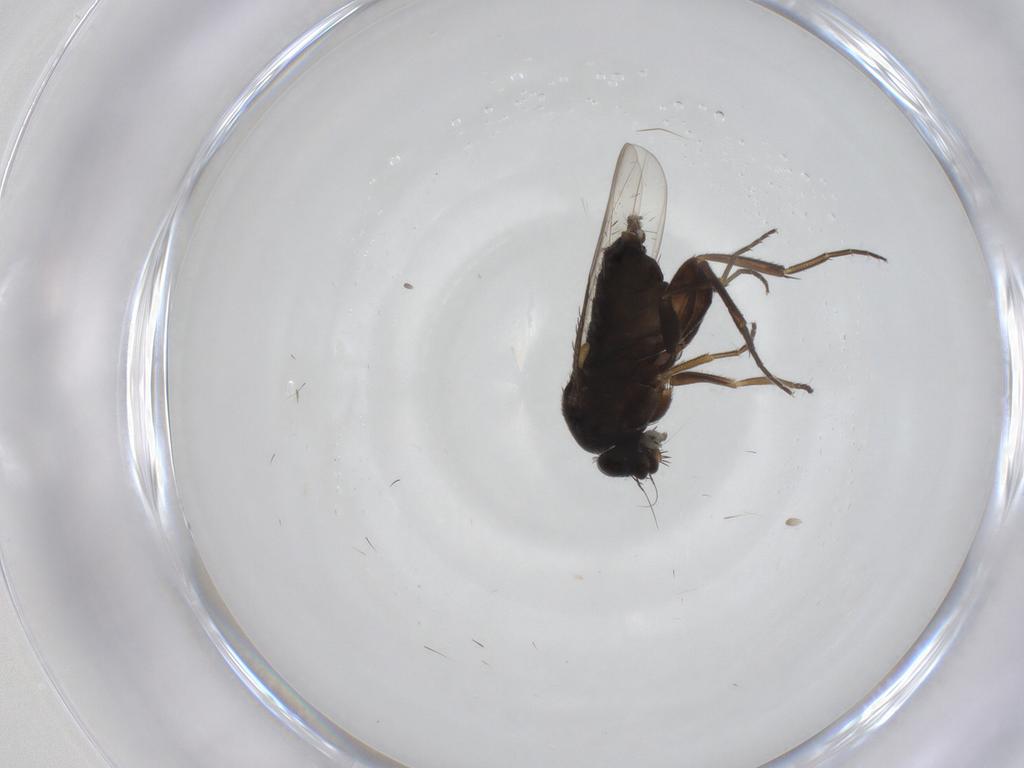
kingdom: Animalia
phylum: Arthropoda
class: Insecta
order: Diptera
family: Phoridae
